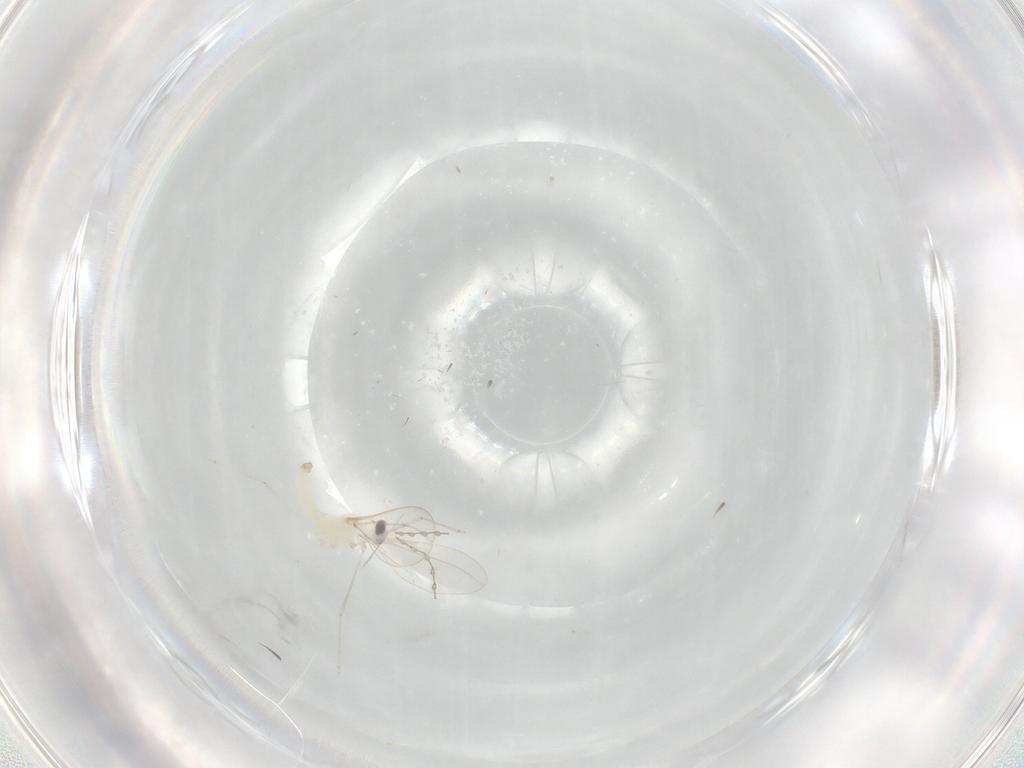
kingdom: Animalia
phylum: Arthropoda
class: Insecta
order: Diptera
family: Cecidomyiidae
